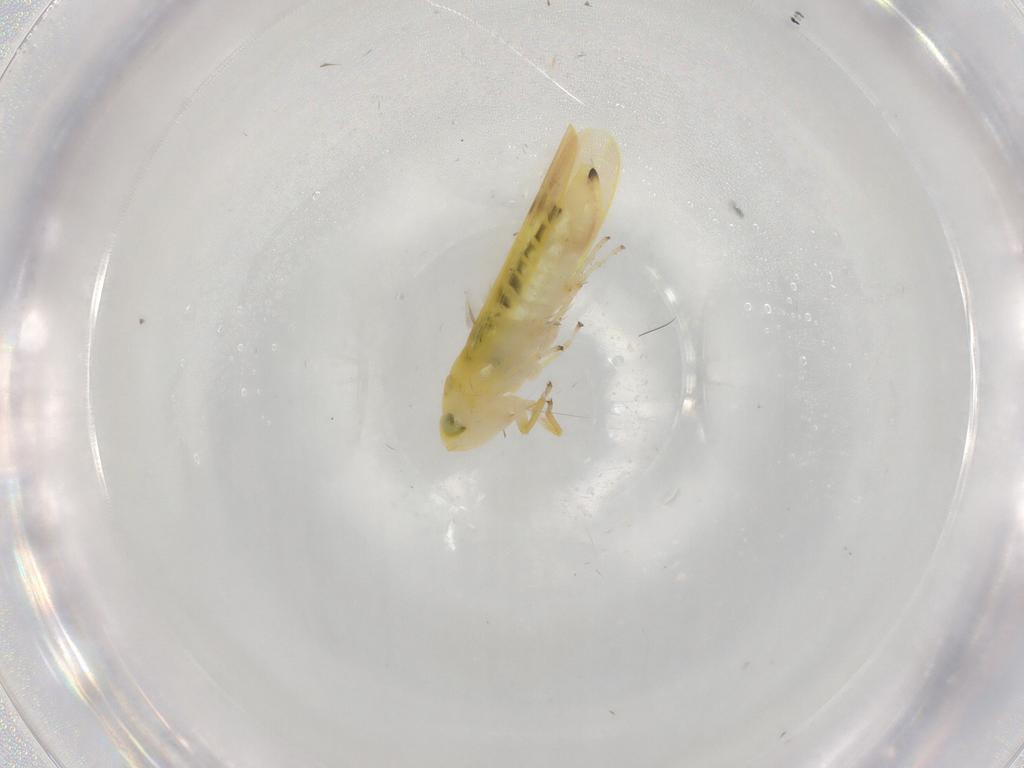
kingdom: Animalia
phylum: Arthropoda
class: Insecta
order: Hemiptera
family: Cicadellidae
